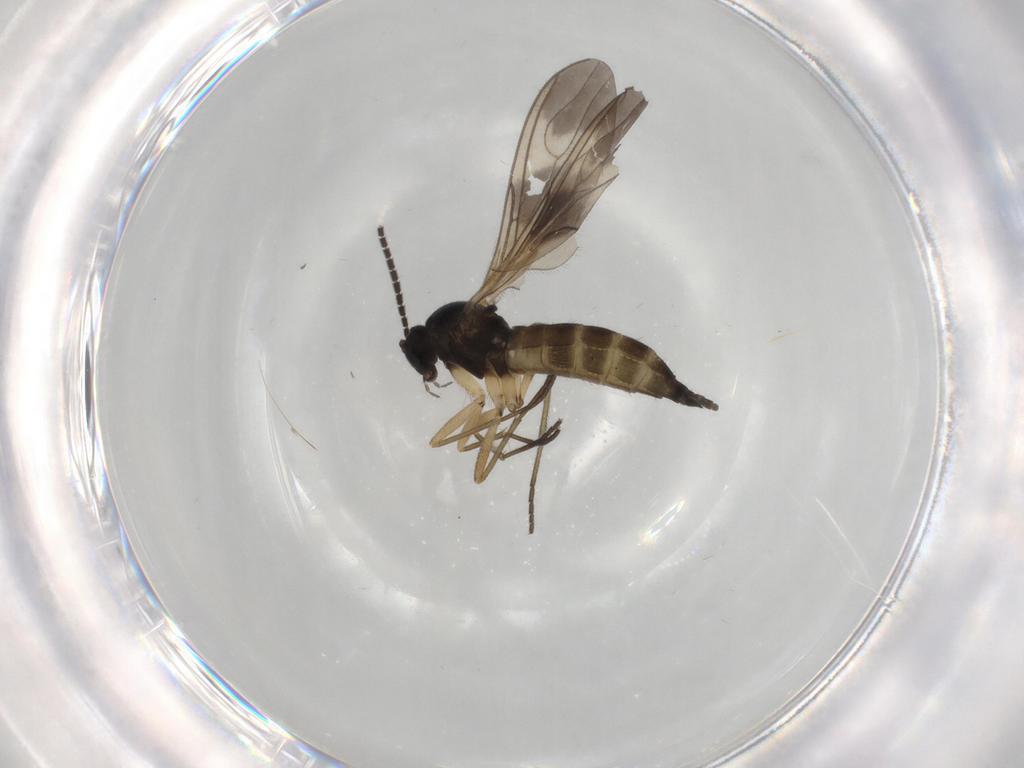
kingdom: Animalia
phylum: Arthropoda
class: Insecta
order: Diptera
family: Sciaridae
